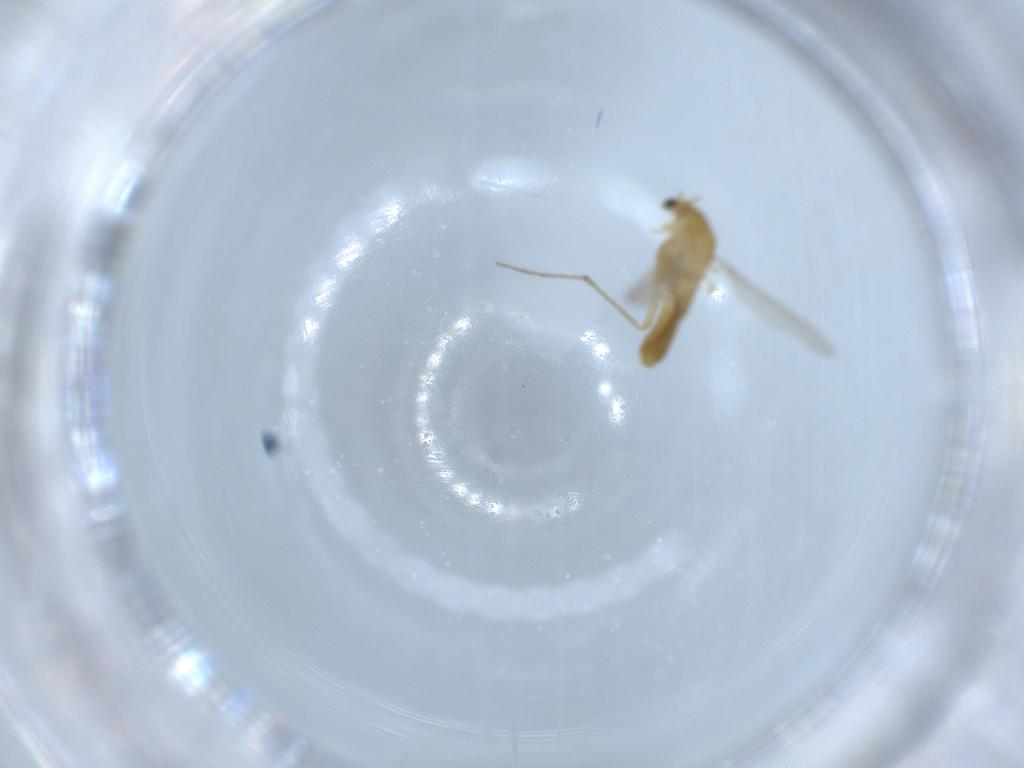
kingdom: Animalia
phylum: Arthropoda
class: Insecta
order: Diptera
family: Chironomidae
